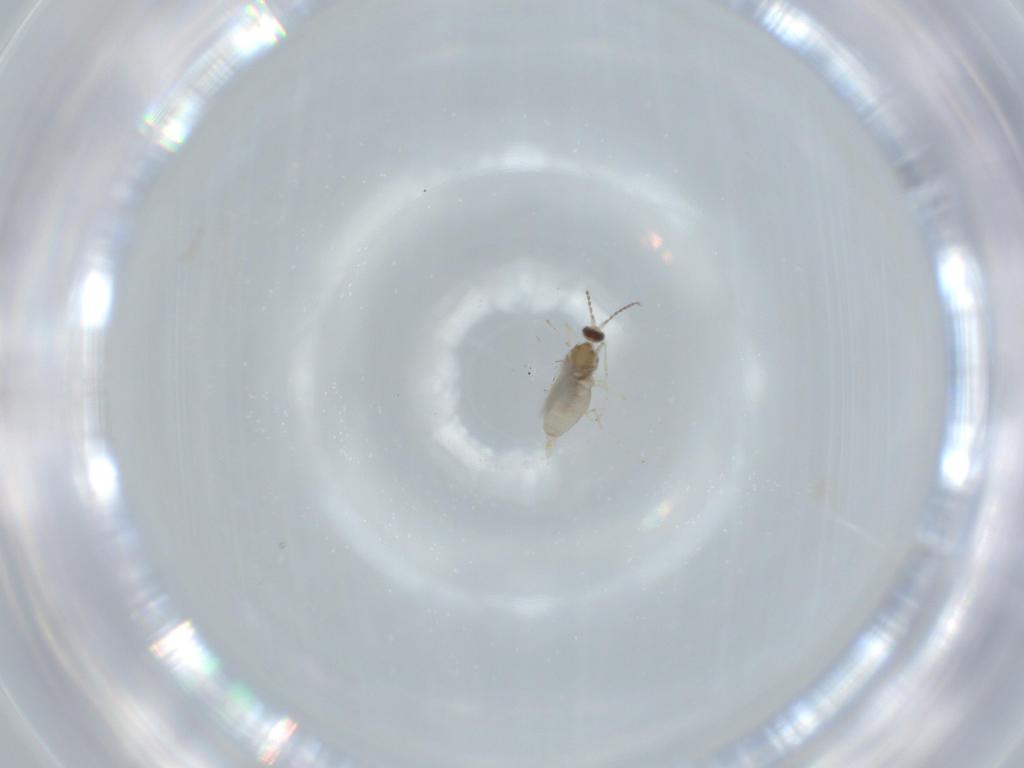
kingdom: Animalia
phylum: Arthropoda
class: Insecta
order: Diptera
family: Cecidomyiidae
